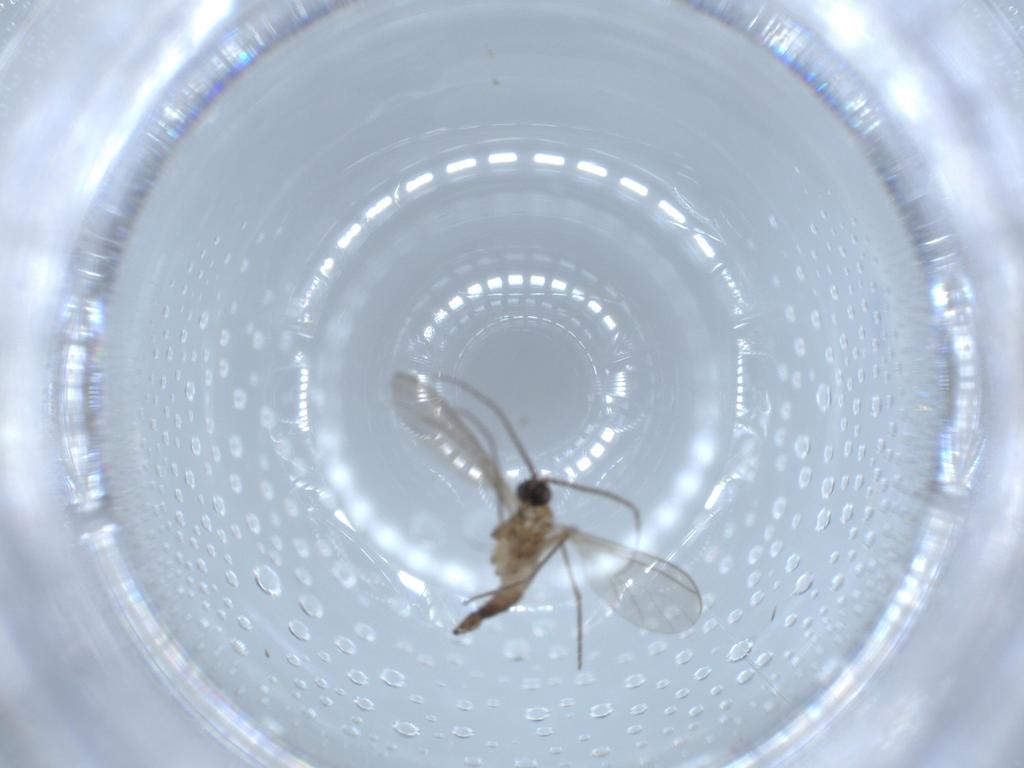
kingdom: Animalia
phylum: Arthropoda
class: Insecta
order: Diptera
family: Sciaridae
